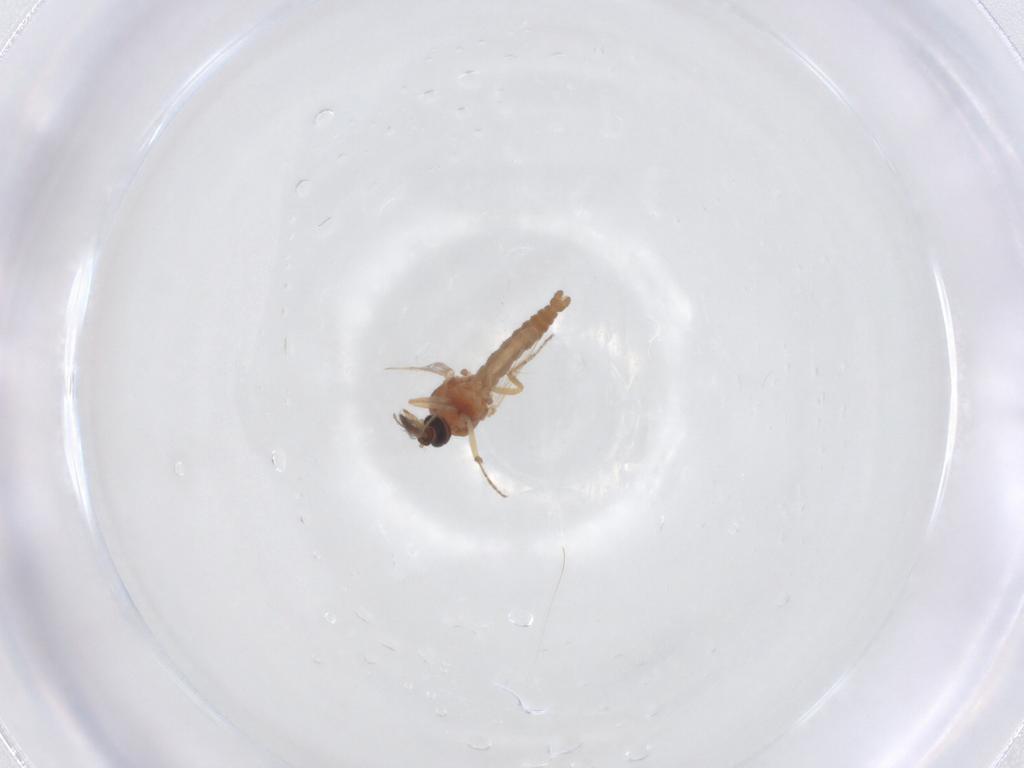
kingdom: Animalia
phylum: Arthropoda
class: Insecta
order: Diptera
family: Ceratopogonidae
